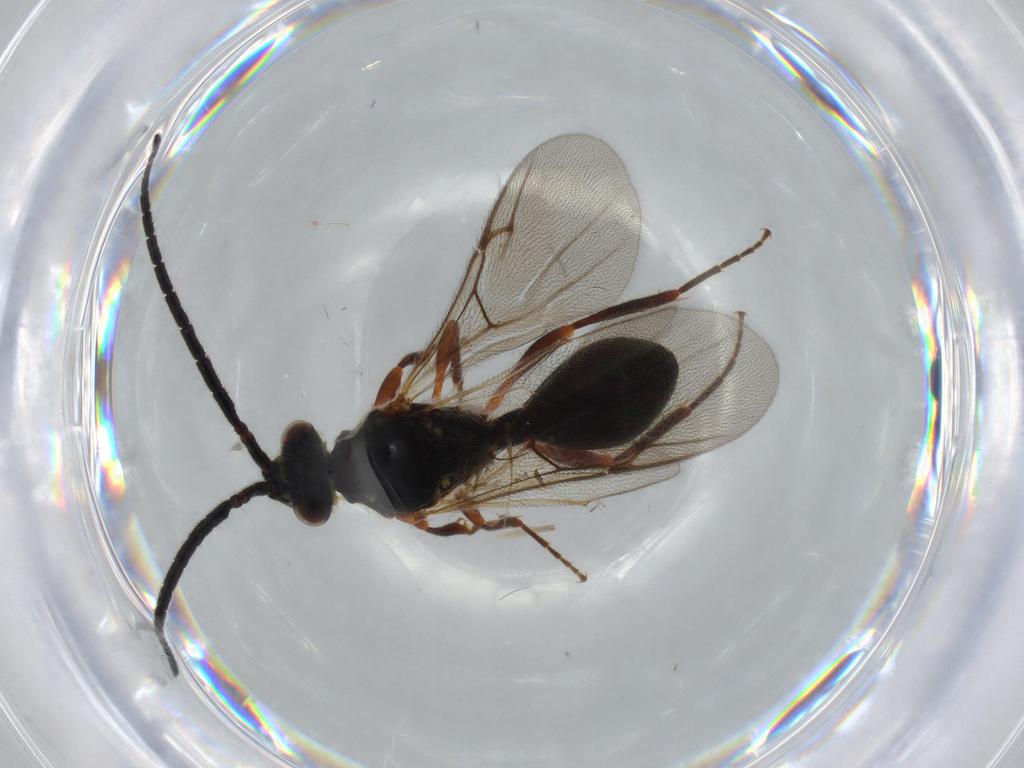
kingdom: Animalia
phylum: Arthropoda
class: Insecta
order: Hymenoptera
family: Diapriidae
